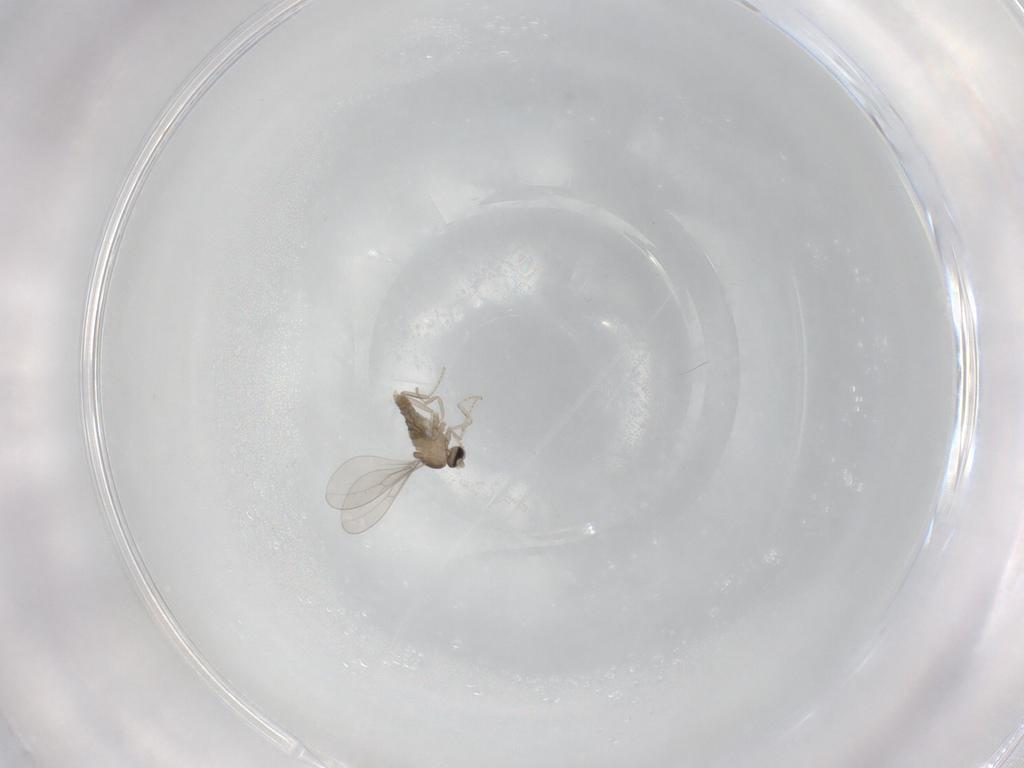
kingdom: Animalia
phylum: Arthropoda
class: Insecta
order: Diptera
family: Cecidomyiidae
